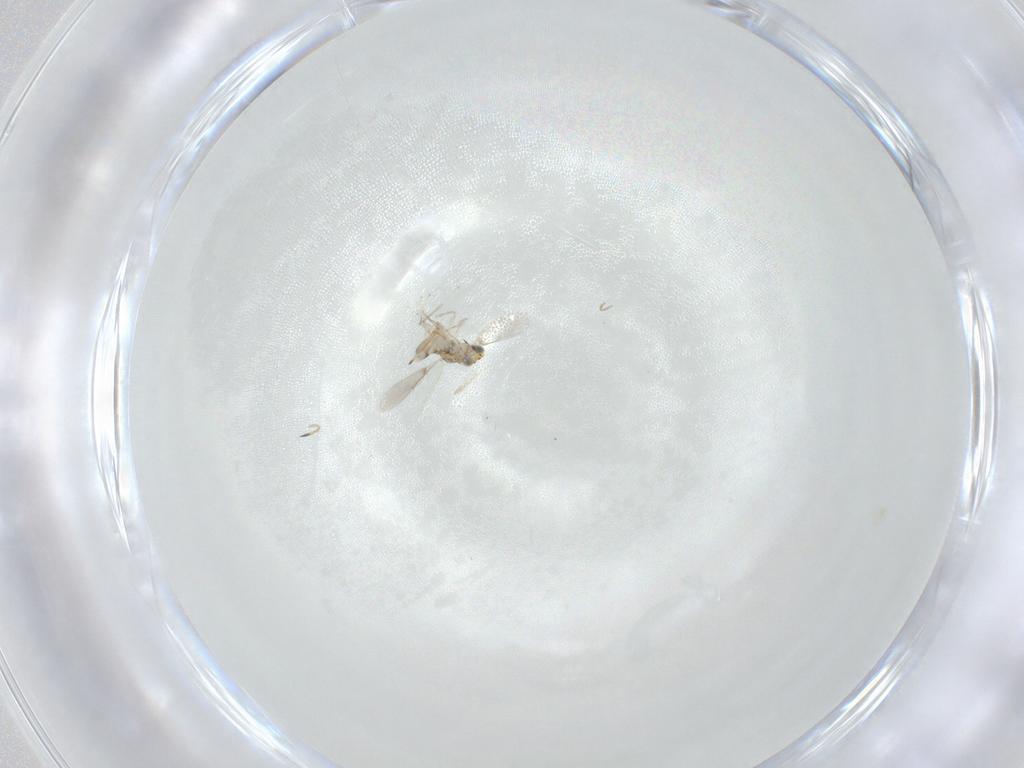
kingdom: Animalia
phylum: Arthropoda
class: Insecta
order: Hymenoptera
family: Aphelinidae
